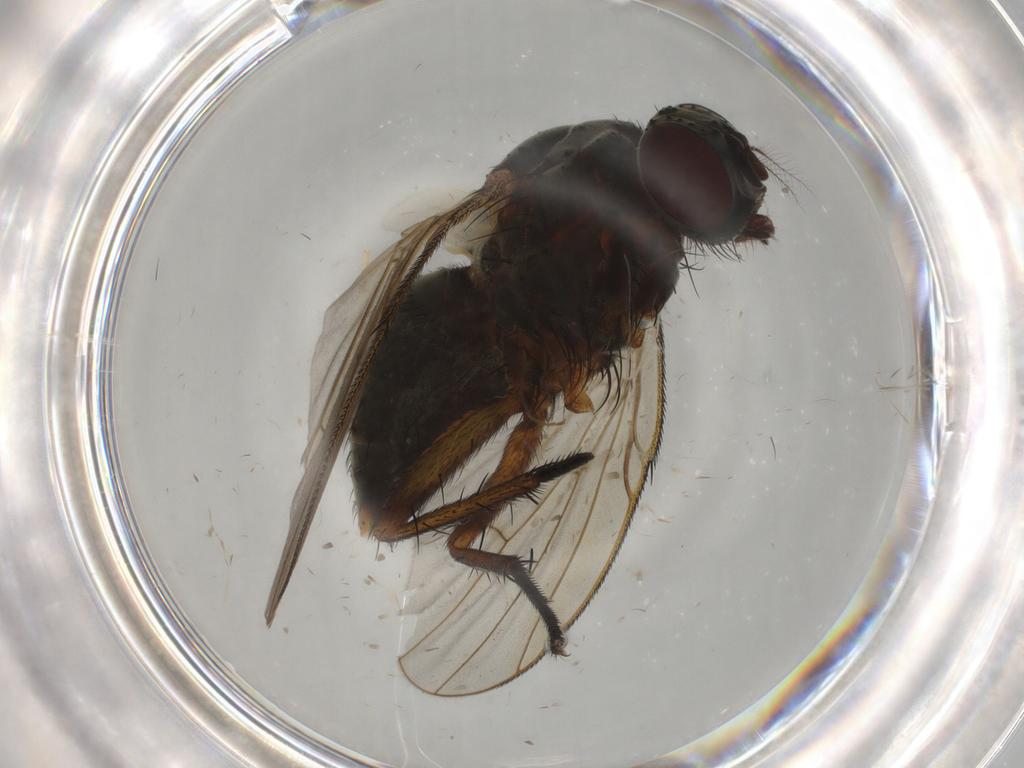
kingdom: Animalia
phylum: Arthropoda
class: Insecta
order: Diptera
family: Muscidae
